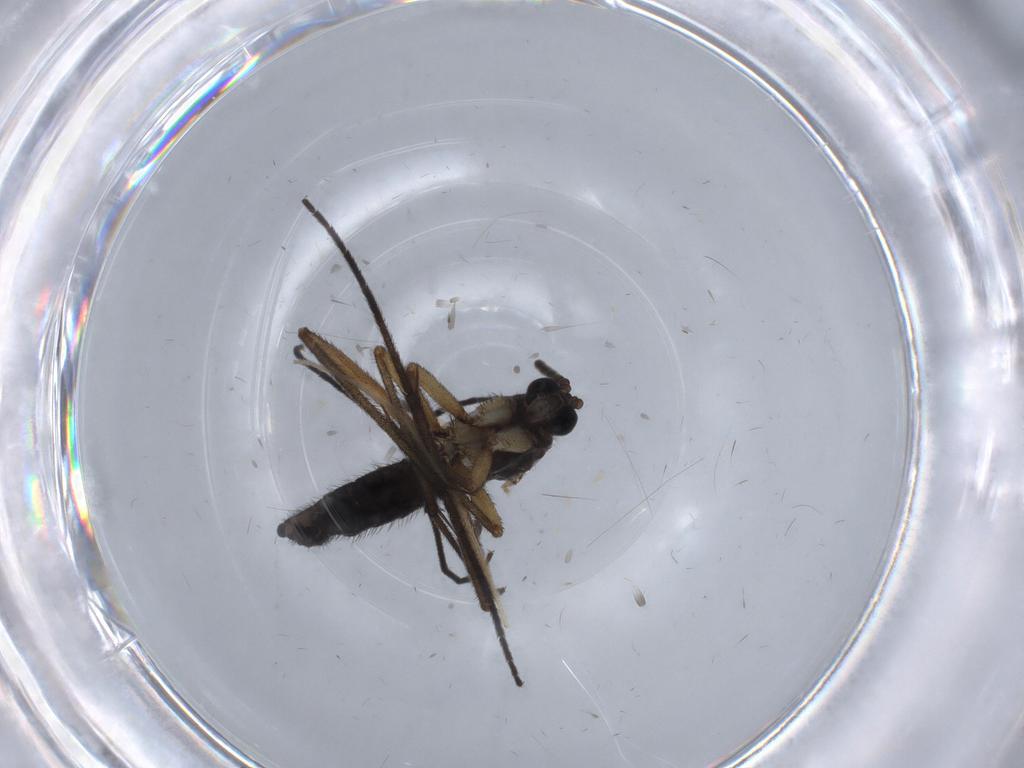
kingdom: Animalia
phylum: Arthropoda
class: Insecta
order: Diptera
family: Sciaridae
